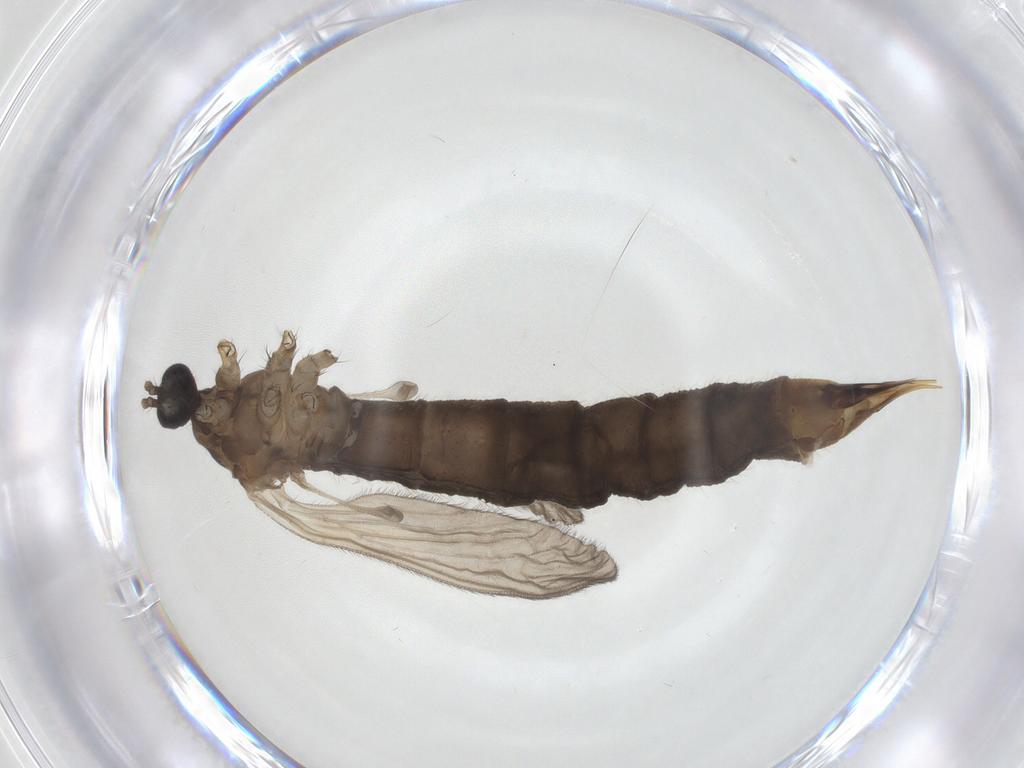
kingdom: Animalia
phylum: Arthropoda
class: Insecta
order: Diptera
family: Limoniidae
